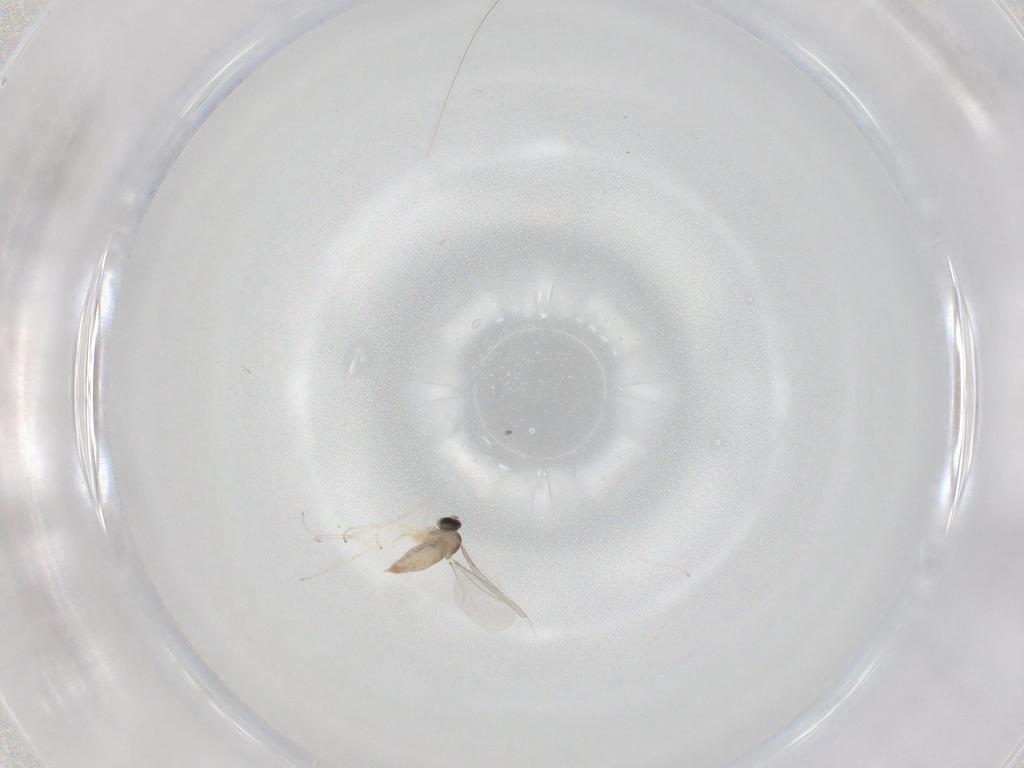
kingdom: Animalia
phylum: Arthropoda
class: Insecta
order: Diptera
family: Cecidomyiidae
